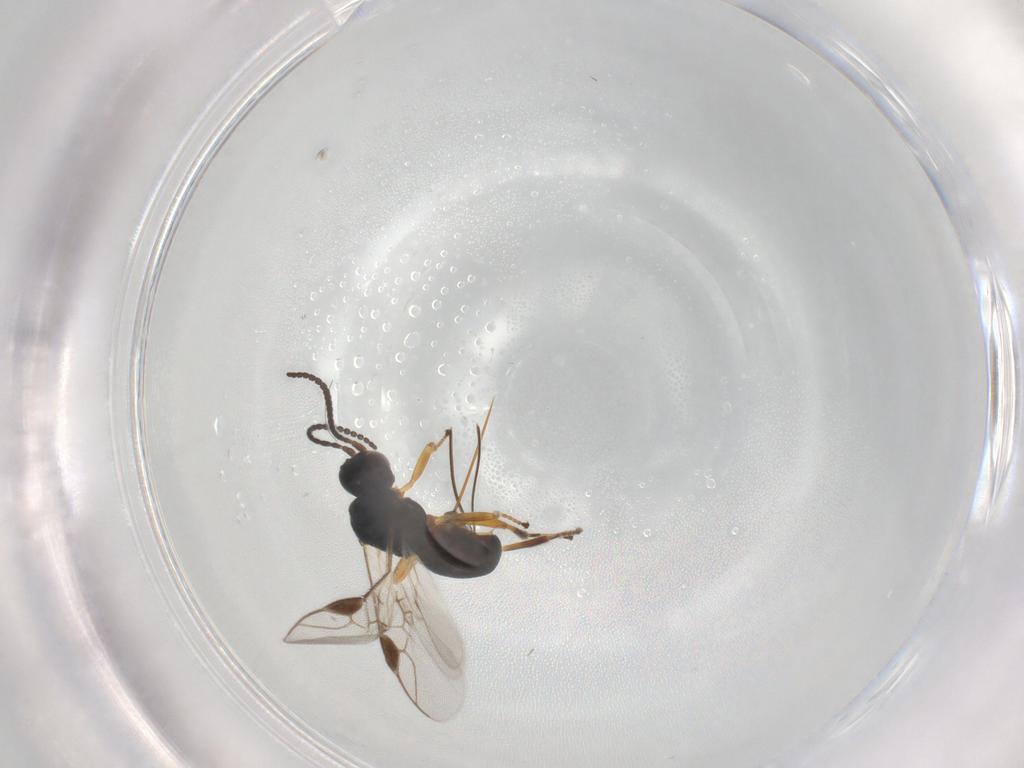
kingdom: Animalia
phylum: Arthropoda
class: Insecta
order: Hymenoptera
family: Braconidae
